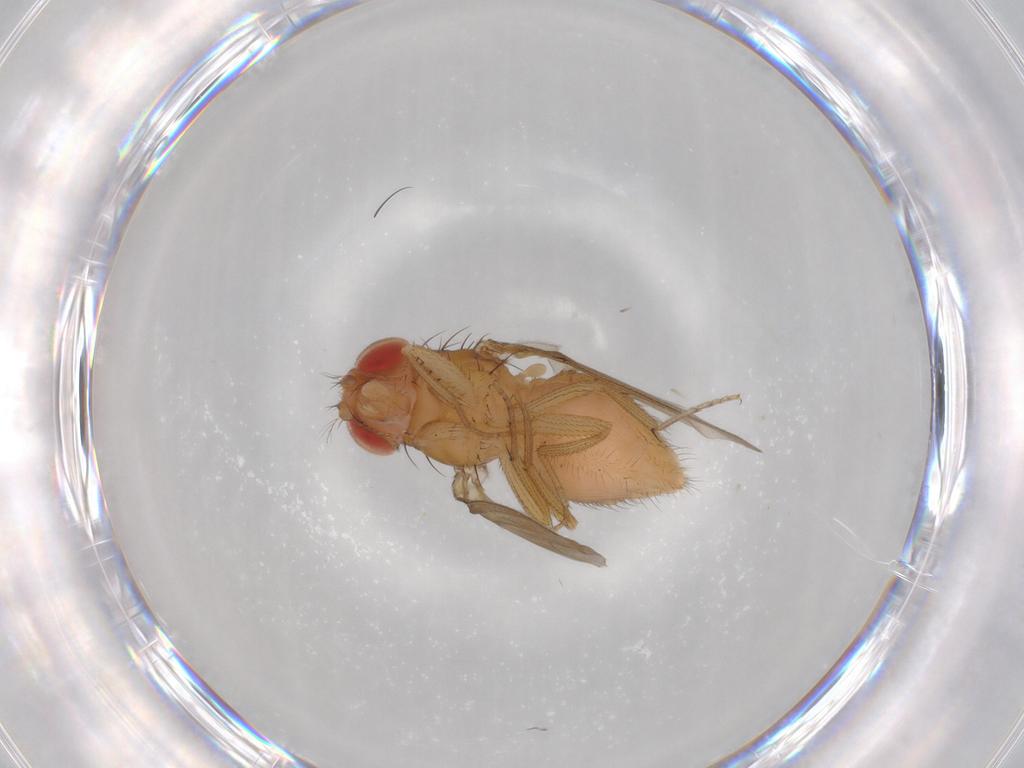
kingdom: Animalia
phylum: Arthropoda
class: Insecta
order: Diptera
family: Drosophilidae
